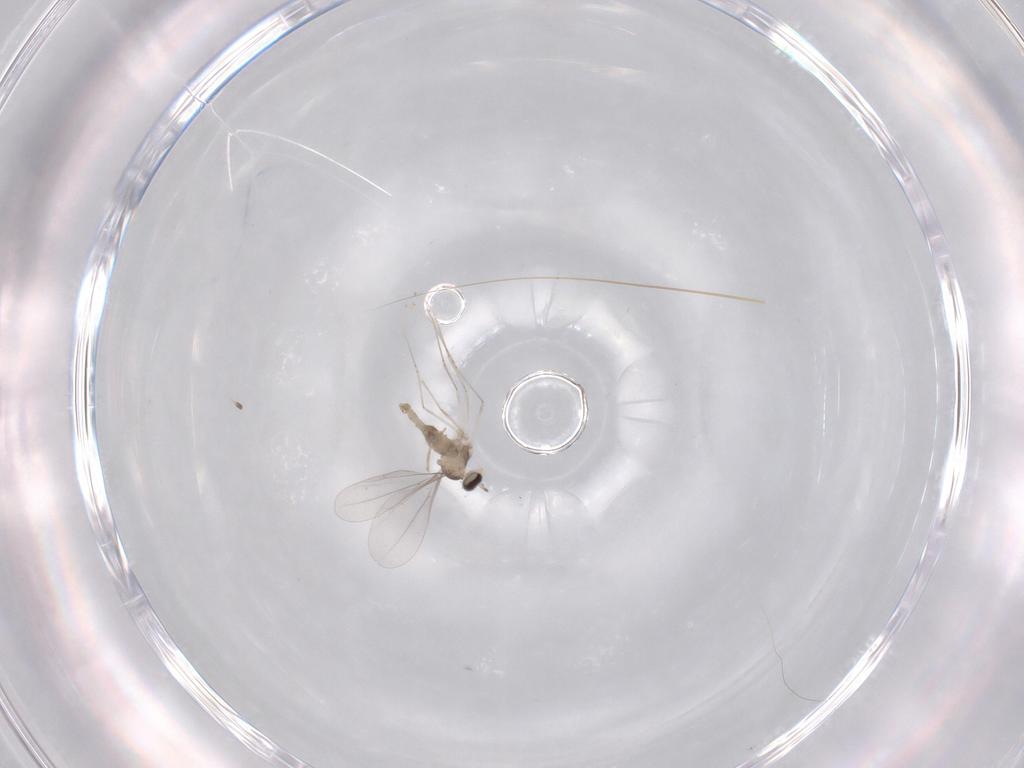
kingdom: Animalia
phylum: Arthropoda
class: Insecta
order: Diptera
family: Cecidomyiidae
